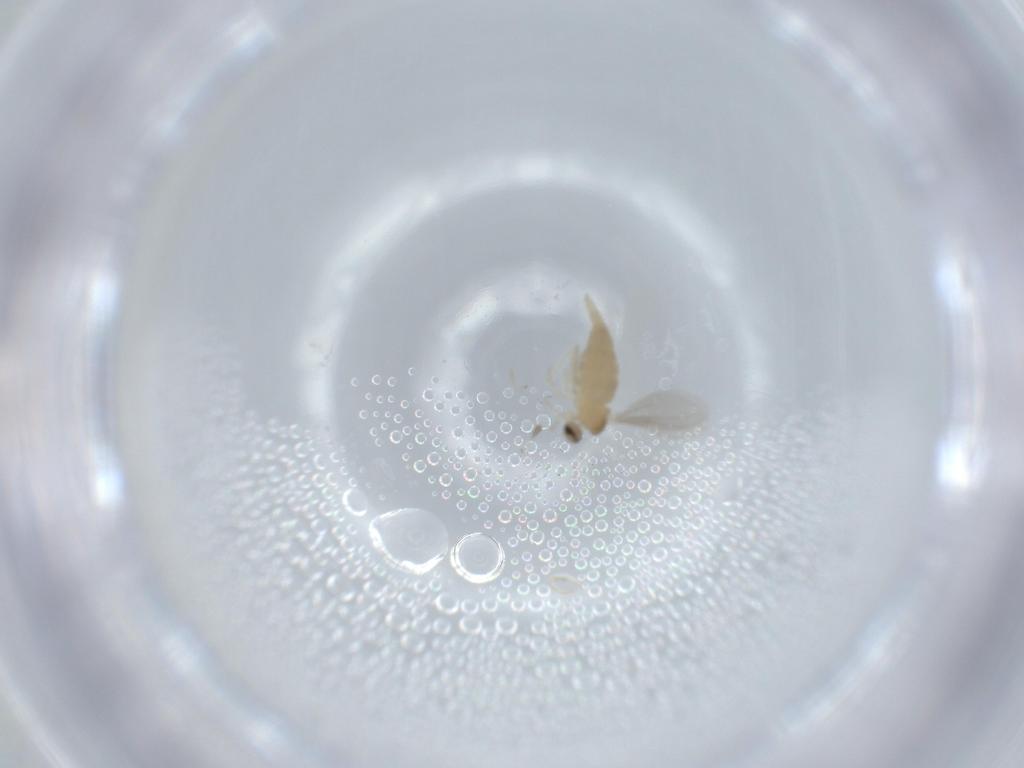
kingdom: Animalia
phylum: Arthropoda
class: Insecta
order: Diptera
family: Cecidomyiidae
